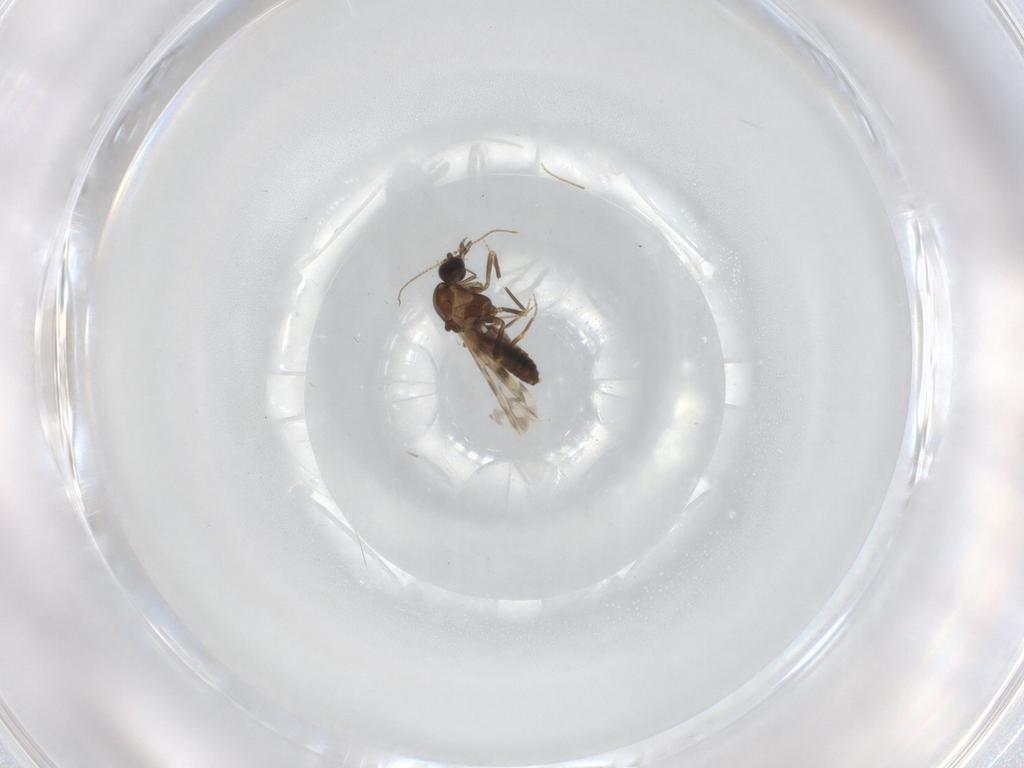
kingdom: Animalia
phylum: Arthropoda
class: Insecta
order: Diptera
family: Ceratopogonidae
